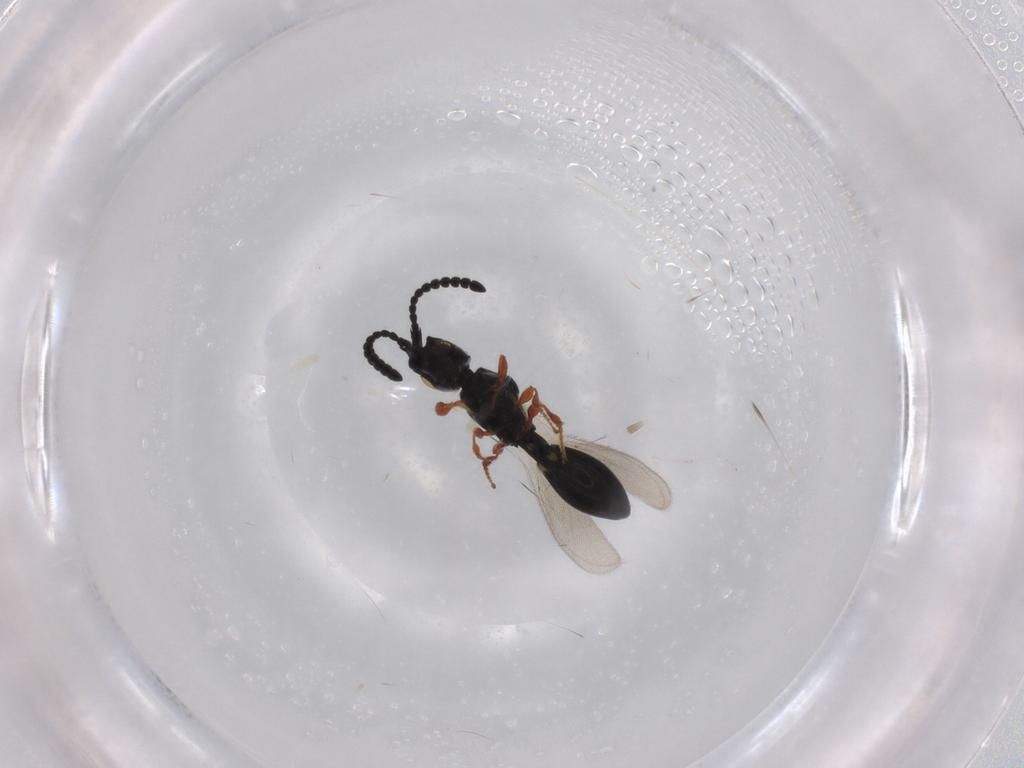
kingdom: Animalia
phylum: Arthropoda
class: Insecta
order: Hymenoptera
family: Diapriidae
